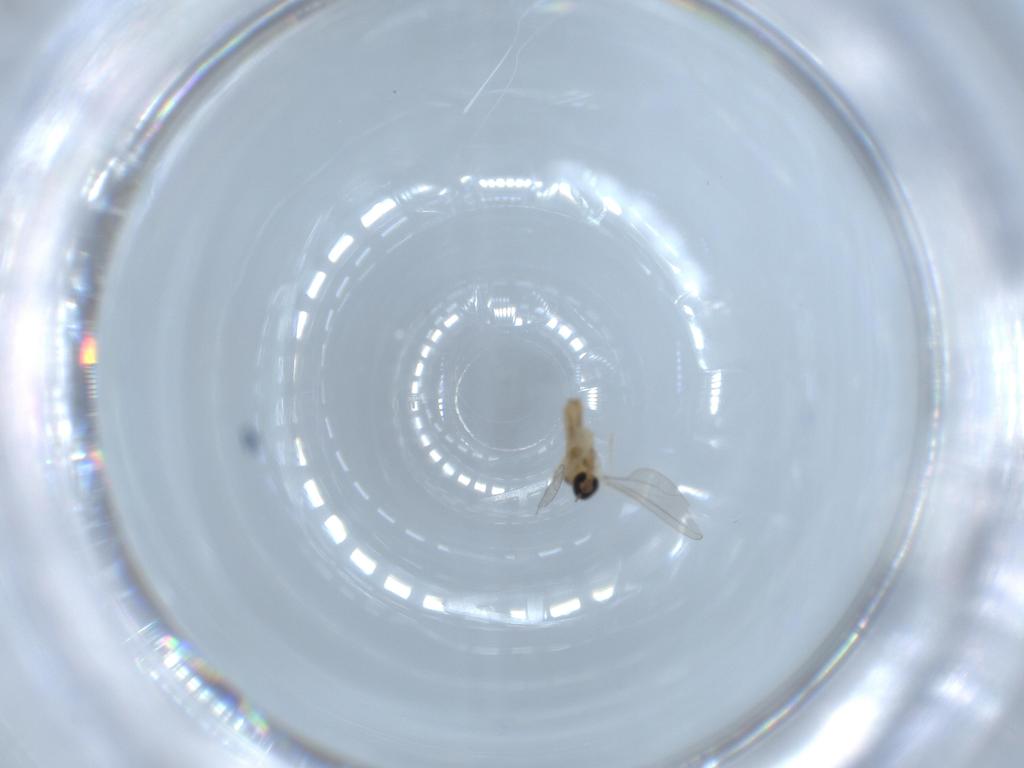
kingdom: Animalia
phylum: Arthropoda
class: Insecta
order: Diptera
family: Cecidomyiidae
